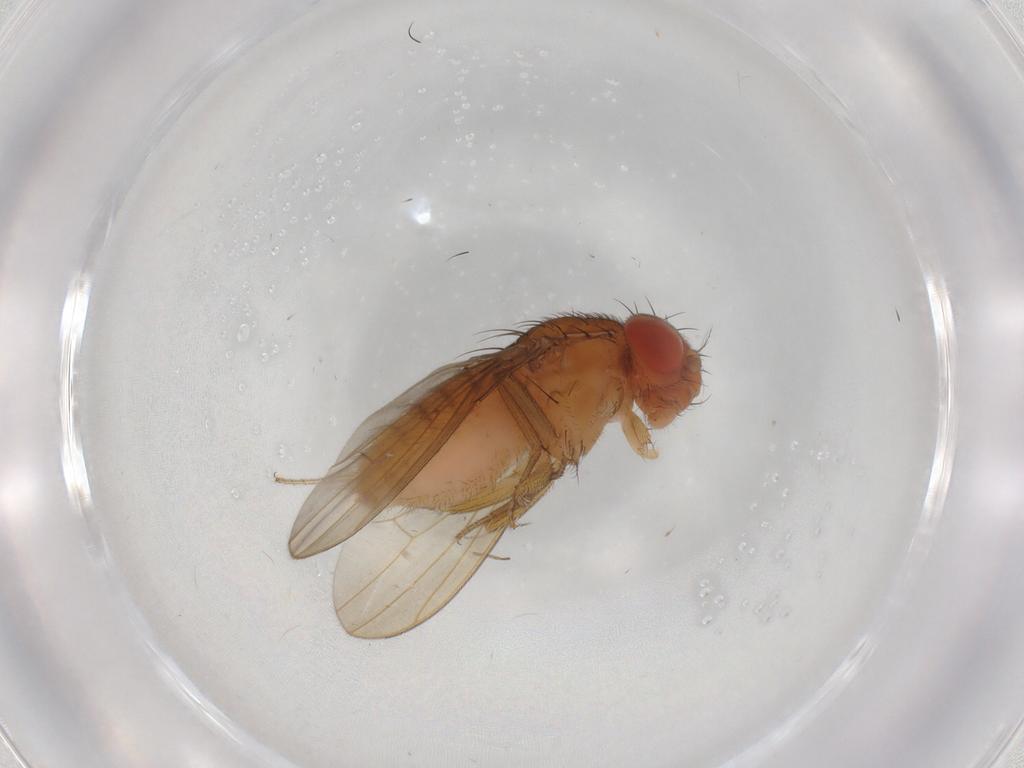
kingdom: Animalia
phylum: Arthropoda
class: Insecta
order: Diptera
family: Drosophilidae
